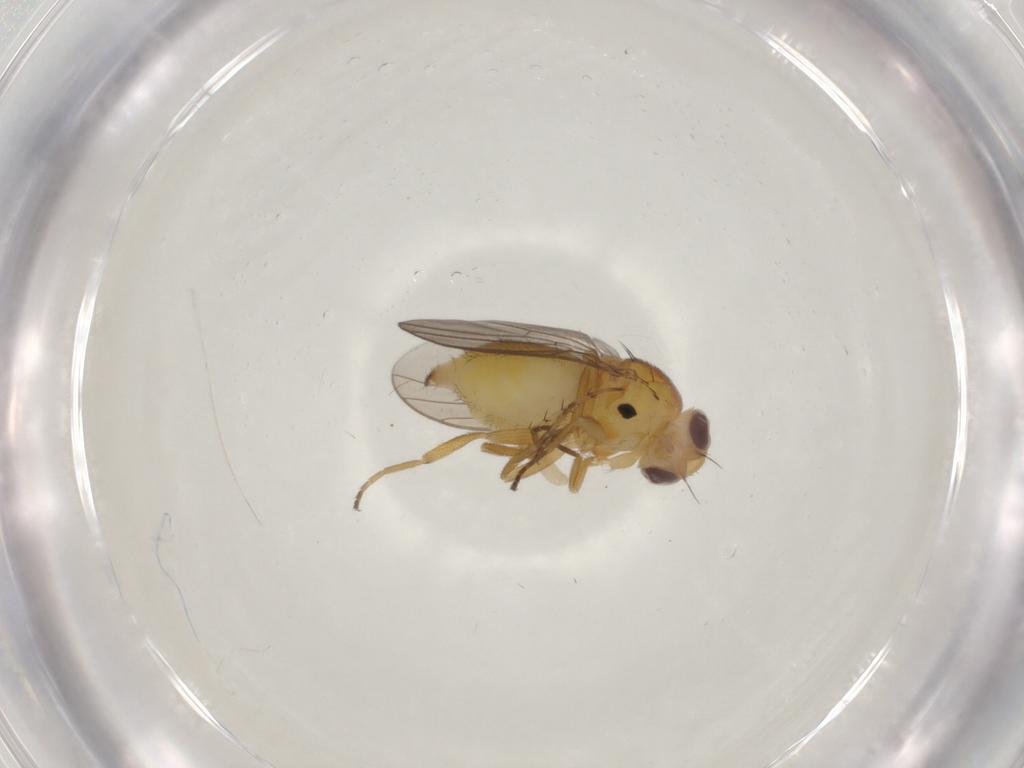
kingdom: Animalia
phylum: Arthropoda
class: Insecta
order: Diptera
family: Chloropidae
